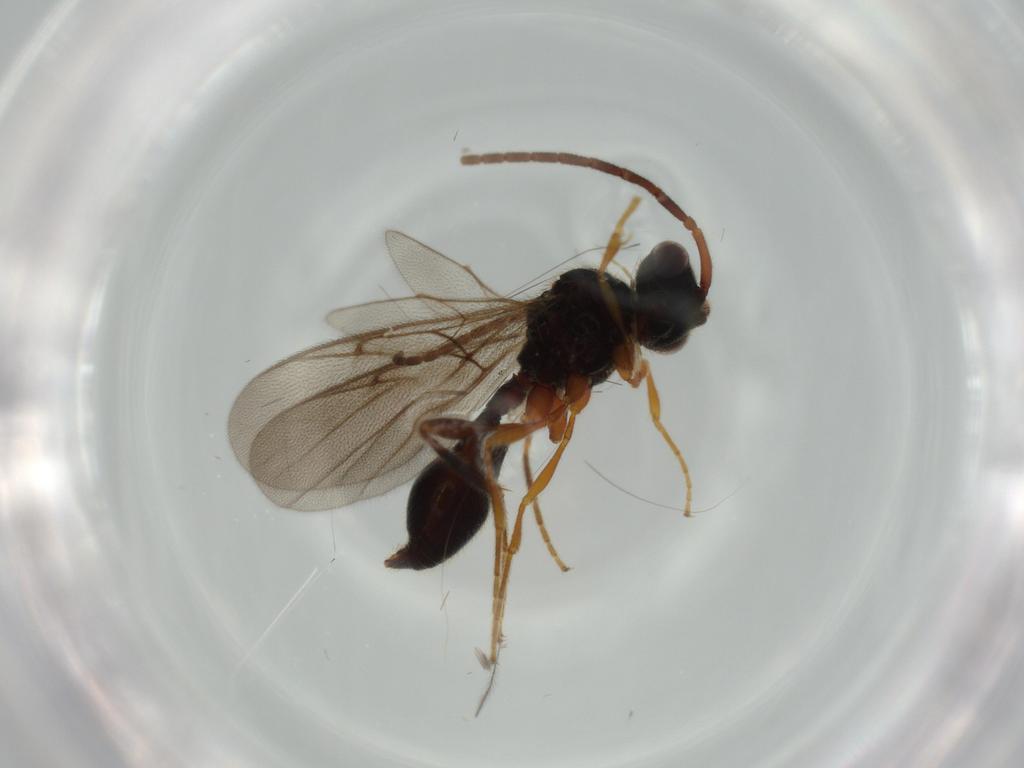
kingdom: Animalia
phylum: Arthropoda
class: Insecta
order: Hymenoptera
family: Diapriidae
